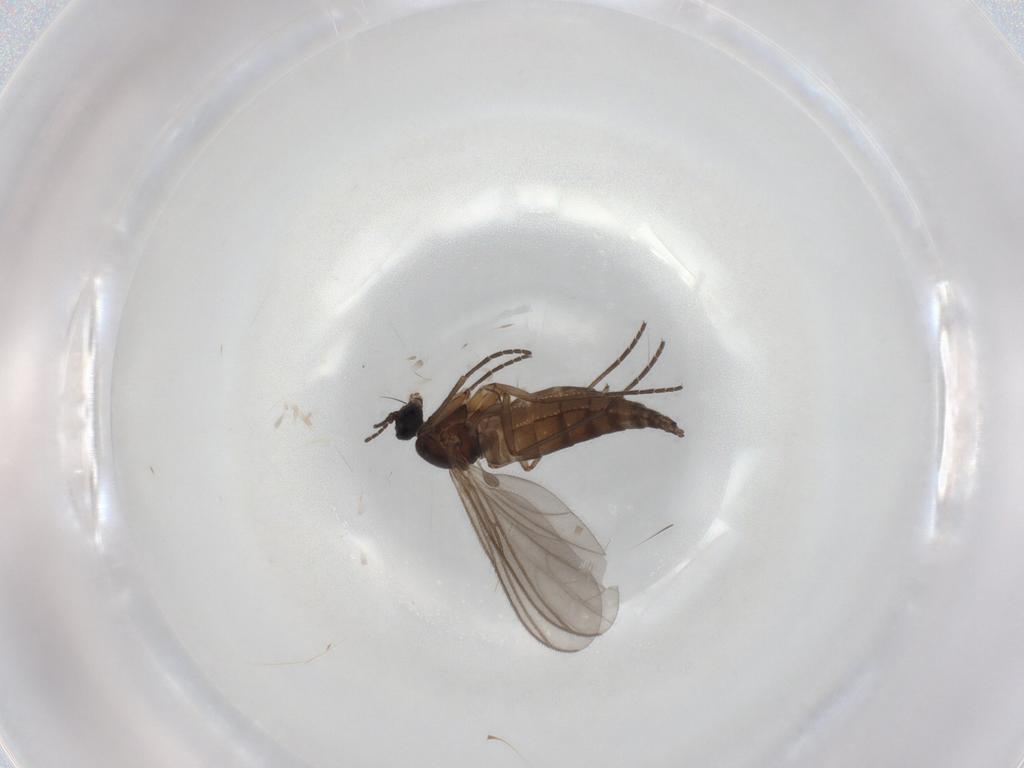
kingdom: Animalia
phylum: Arthropoda
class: Insecta
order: Diptera
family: Sciaridae
